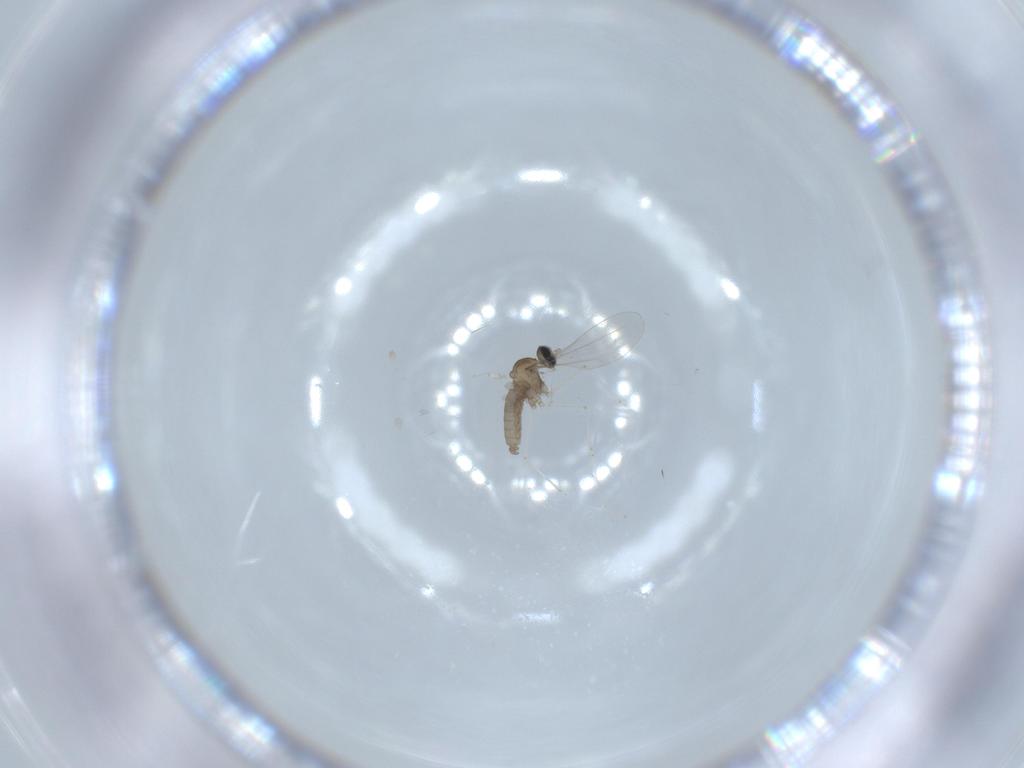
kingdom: Animalia
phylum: Arthropoda
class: Insecta
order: Diptera
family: Cecidomyiidae
